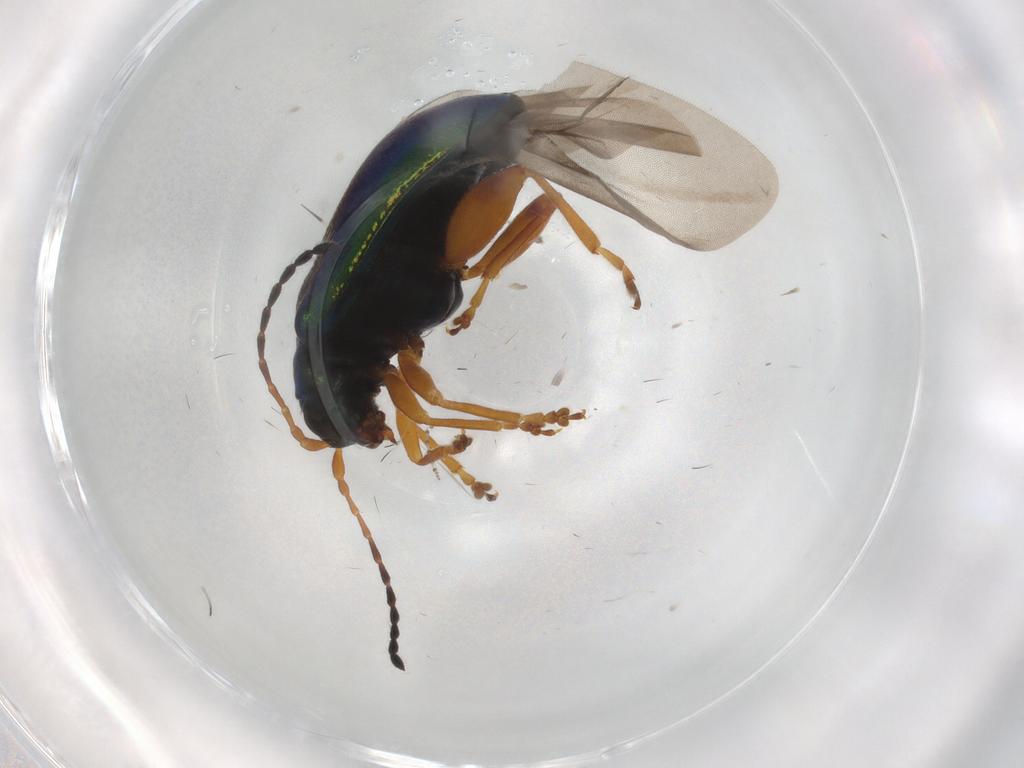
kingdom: Animalia
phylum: Arthropoda
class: Insecta
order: Coleoptera
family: Chrysomelidae
